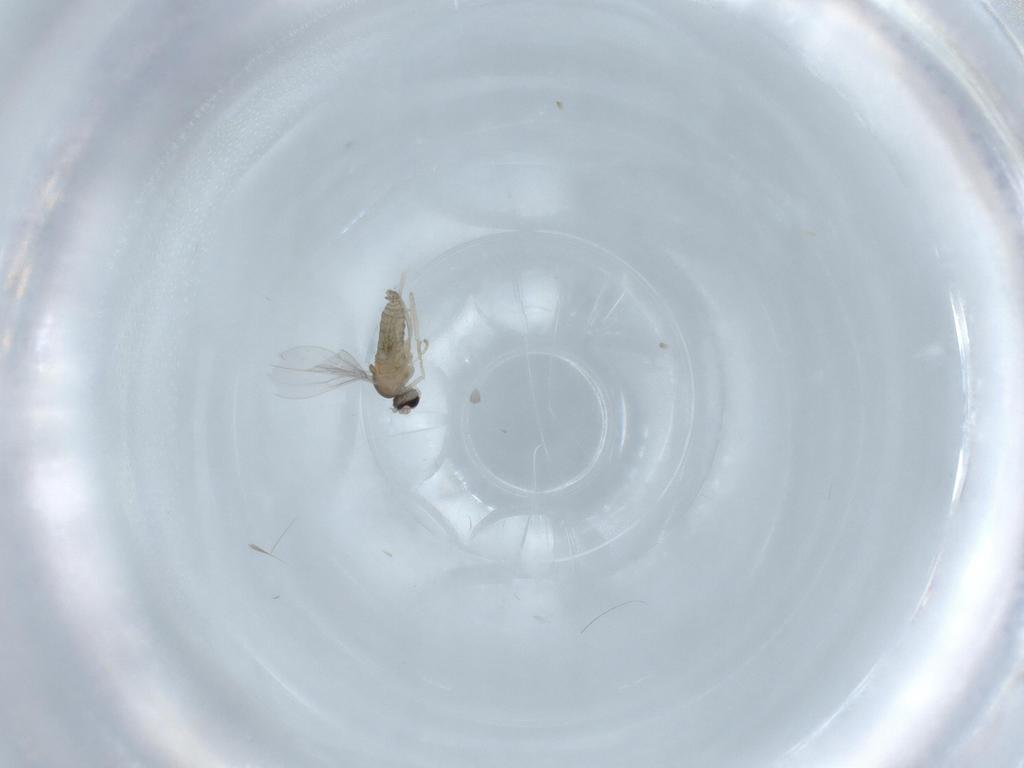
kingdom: Animalia
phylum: Arthropoda
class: Insecta
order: Diptera
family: Cecidomyiidae
